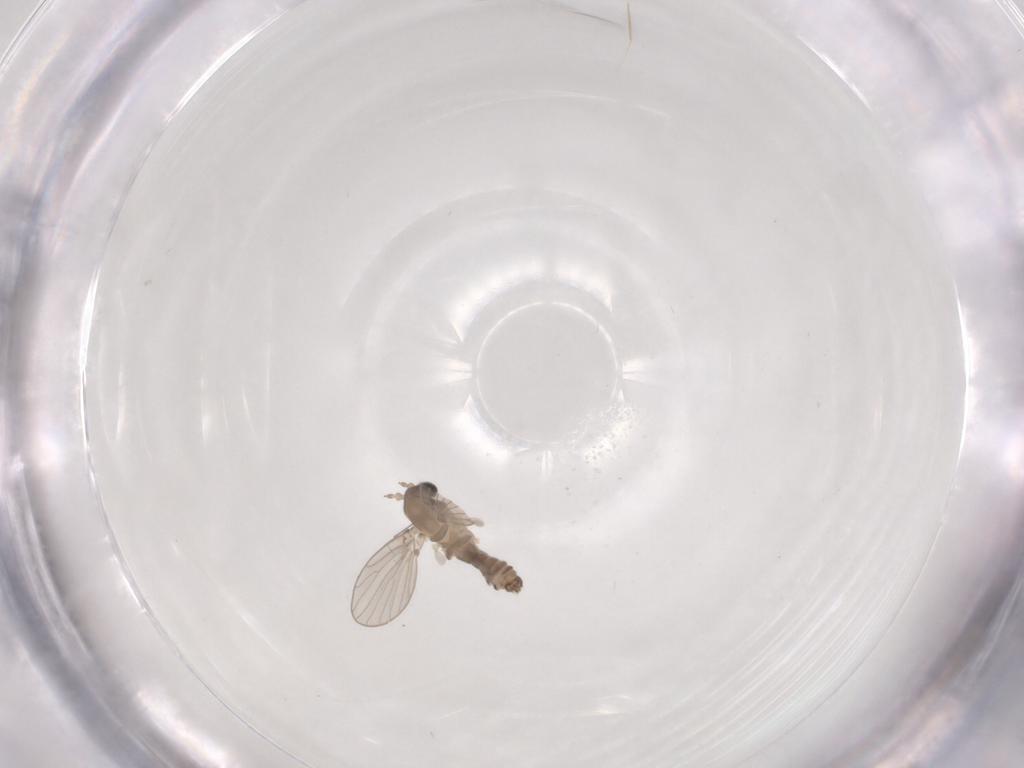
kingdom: Animalia
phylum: Arthropoda
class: Insecta
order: Diptera
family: Psychodidae
